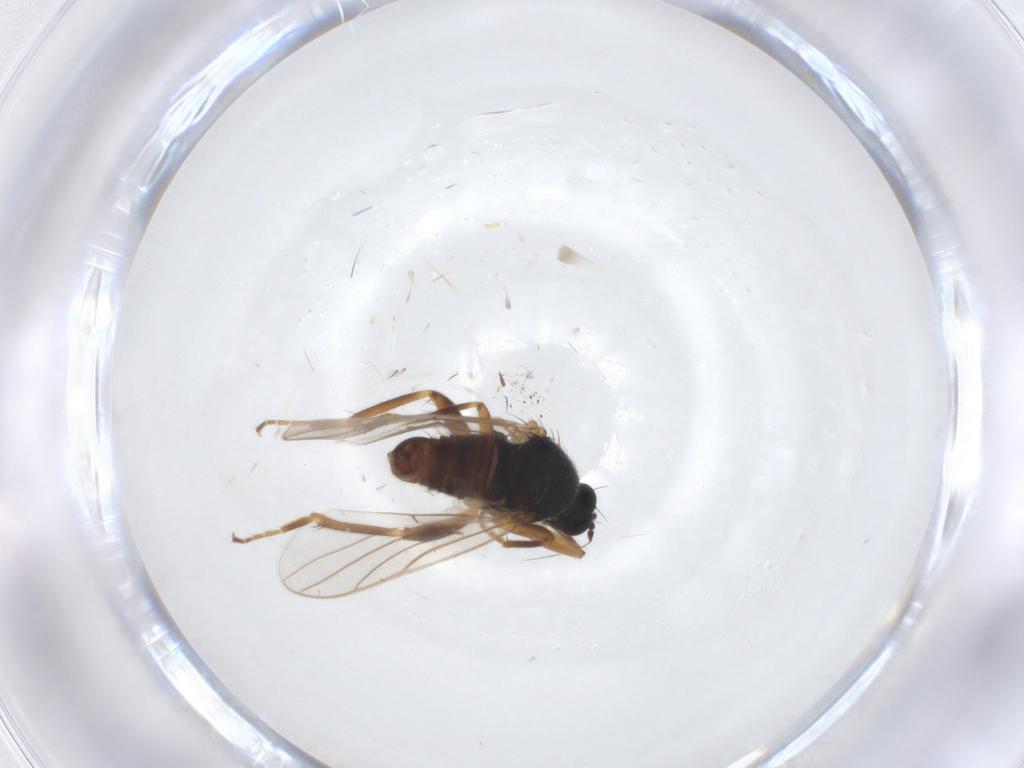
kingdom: Animalia
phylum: Arthropoda
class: Insecta
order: Diptera
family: Hybotidae
